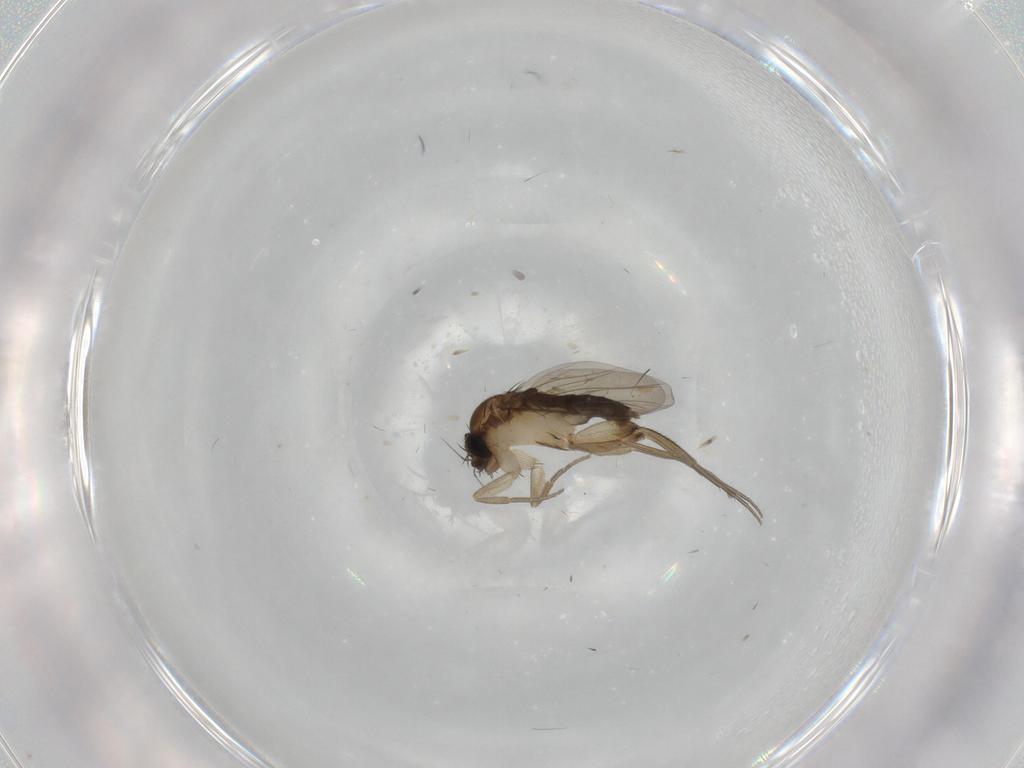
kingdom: Animalia
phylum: Arthropoda
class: Insecta
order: Diptera
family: Phoridae
